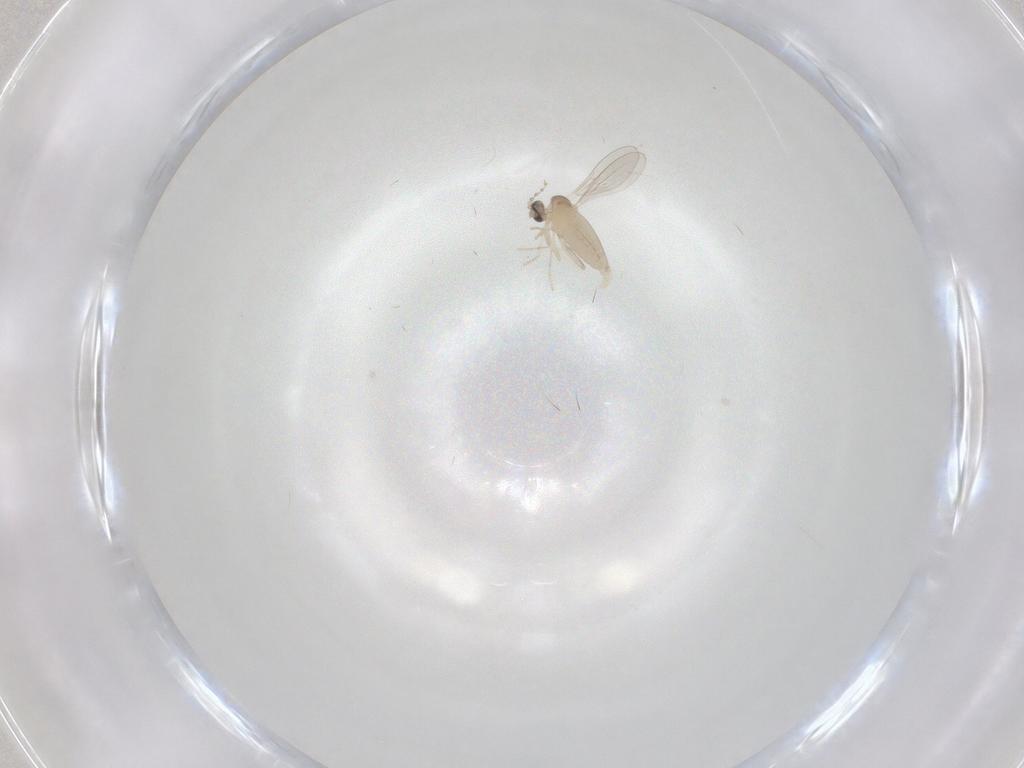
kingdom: Animalia
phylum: Arthropoda
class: Insecta
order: Diptera
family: Cecidomyiidae
